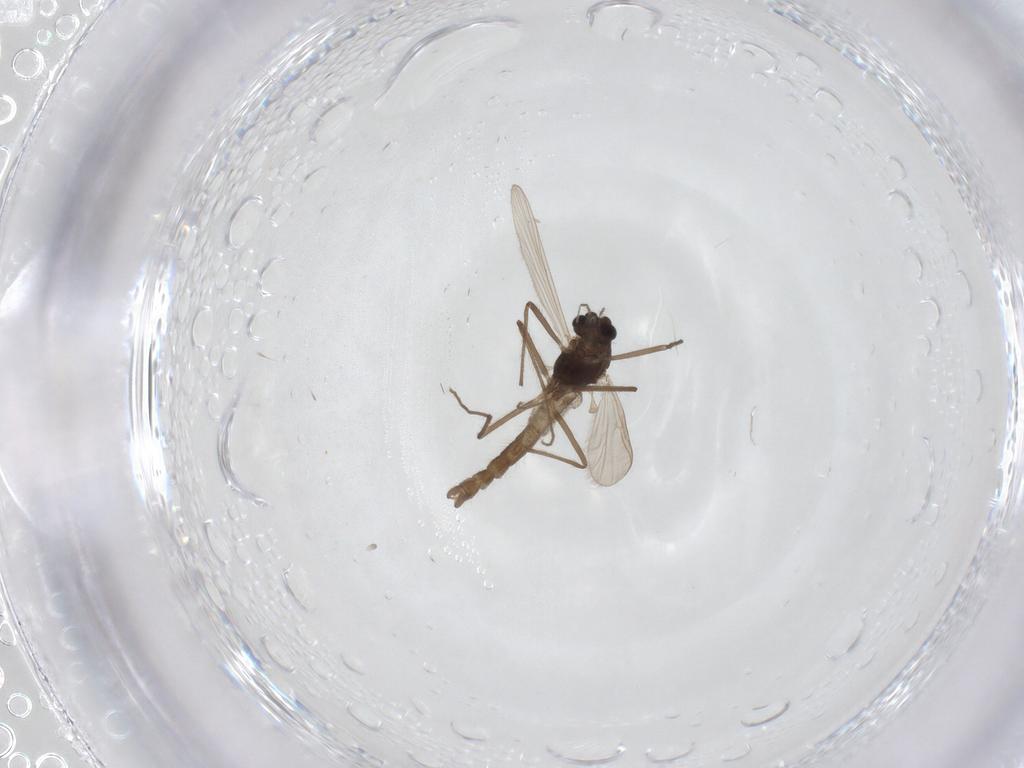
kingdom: Animalia
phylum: Arthropoda
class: Insecta
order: Diptera
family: Chironomidae
